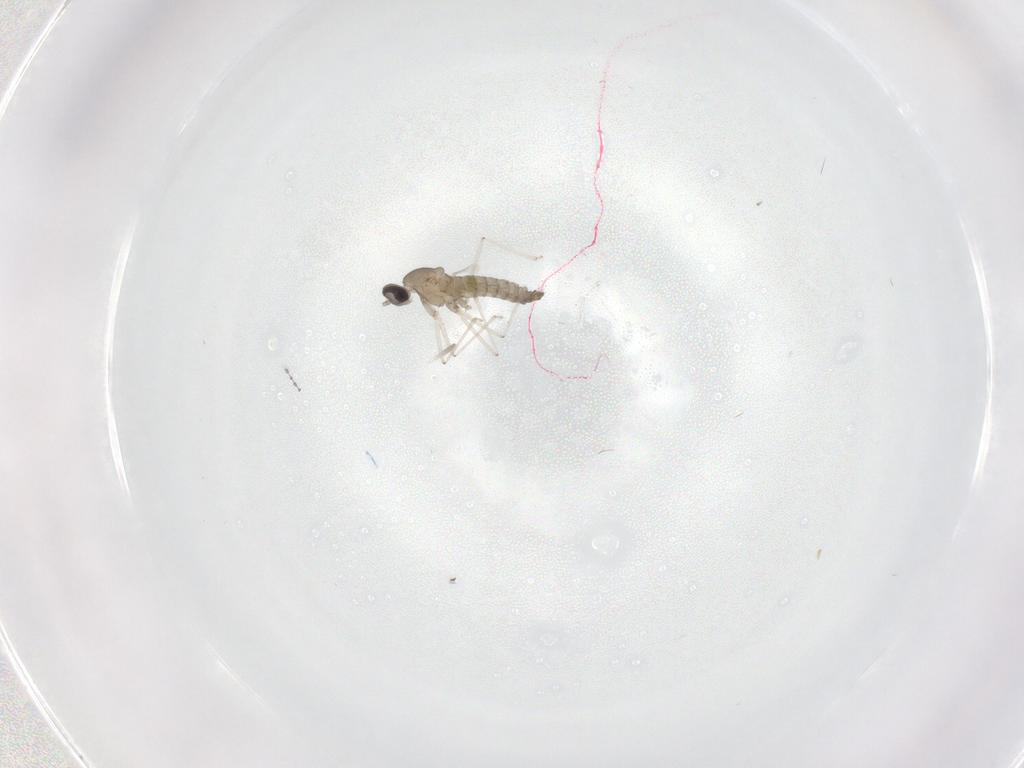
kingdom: Animalia
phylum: Arthropoda
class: Insecta
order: Diptera
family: Cecidomyiidae
